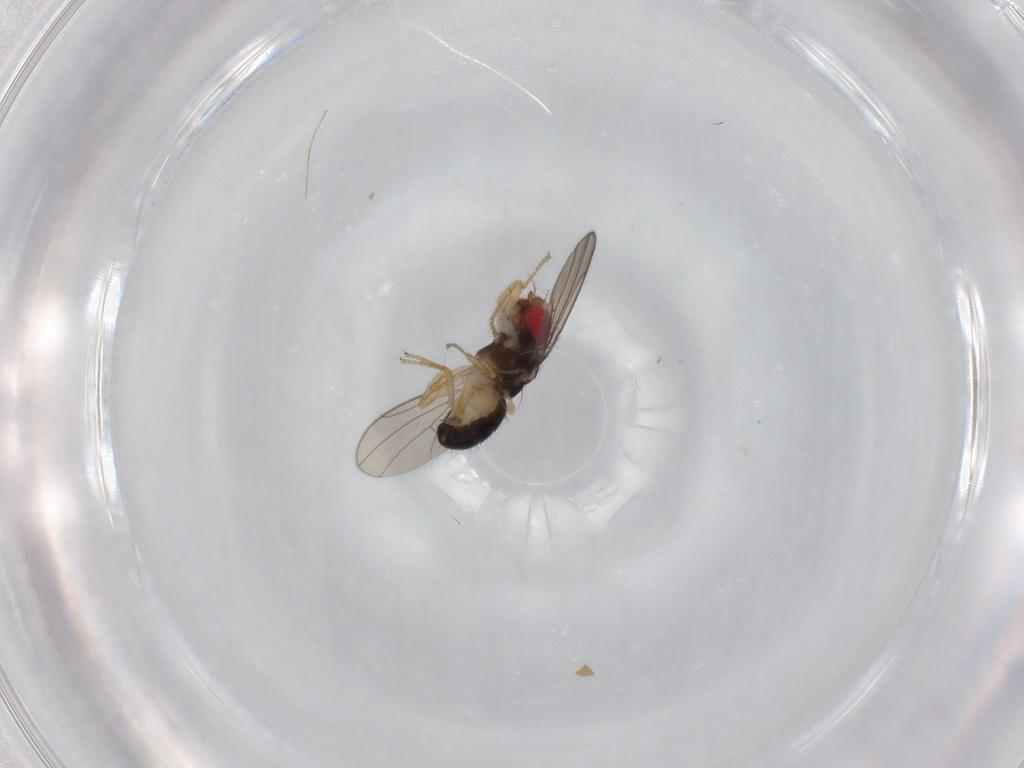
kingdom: Animalia
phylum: Arthropoda
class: Insecta
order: Diptera
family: Drosophilidae
